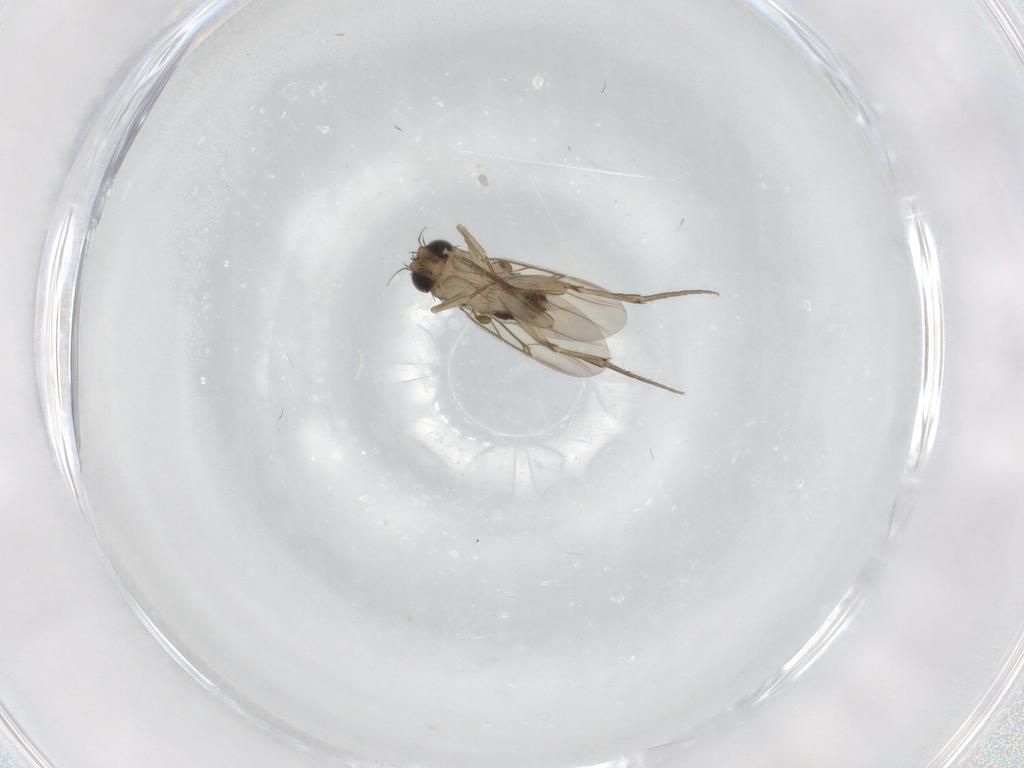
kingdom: Animalia
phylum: Arthropoda
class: Insecta
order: Diptera
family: Phoridae
